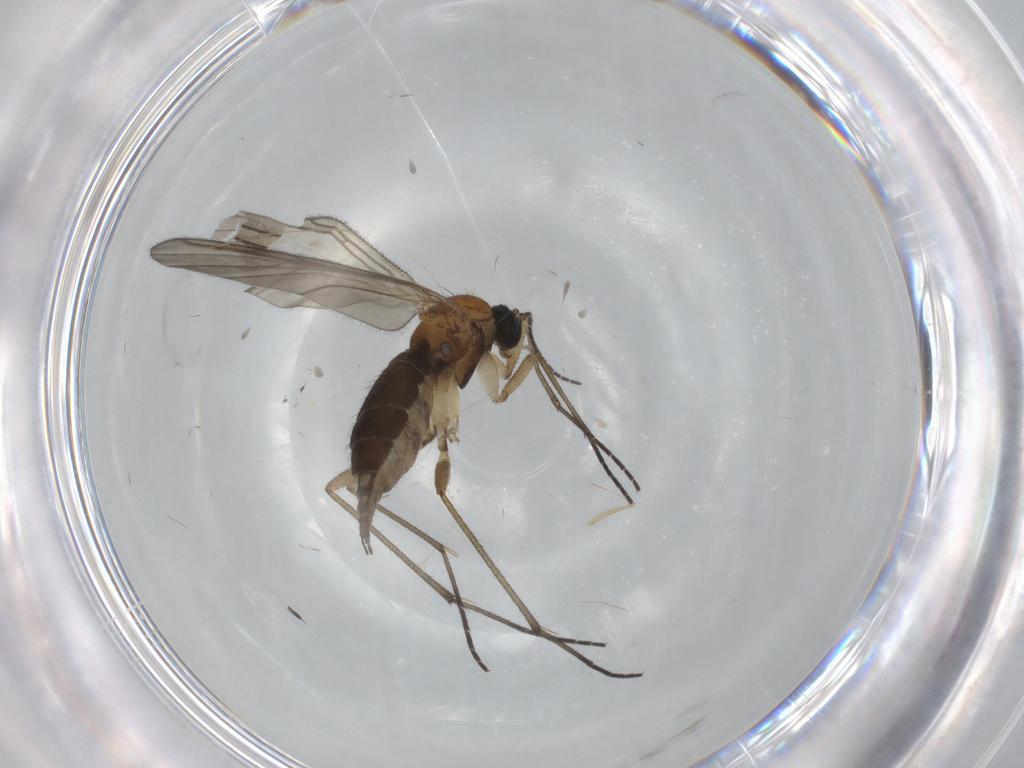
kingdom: Animalia
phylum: Arthropoda
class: Insecta
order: Diptera
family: Sciaridae
